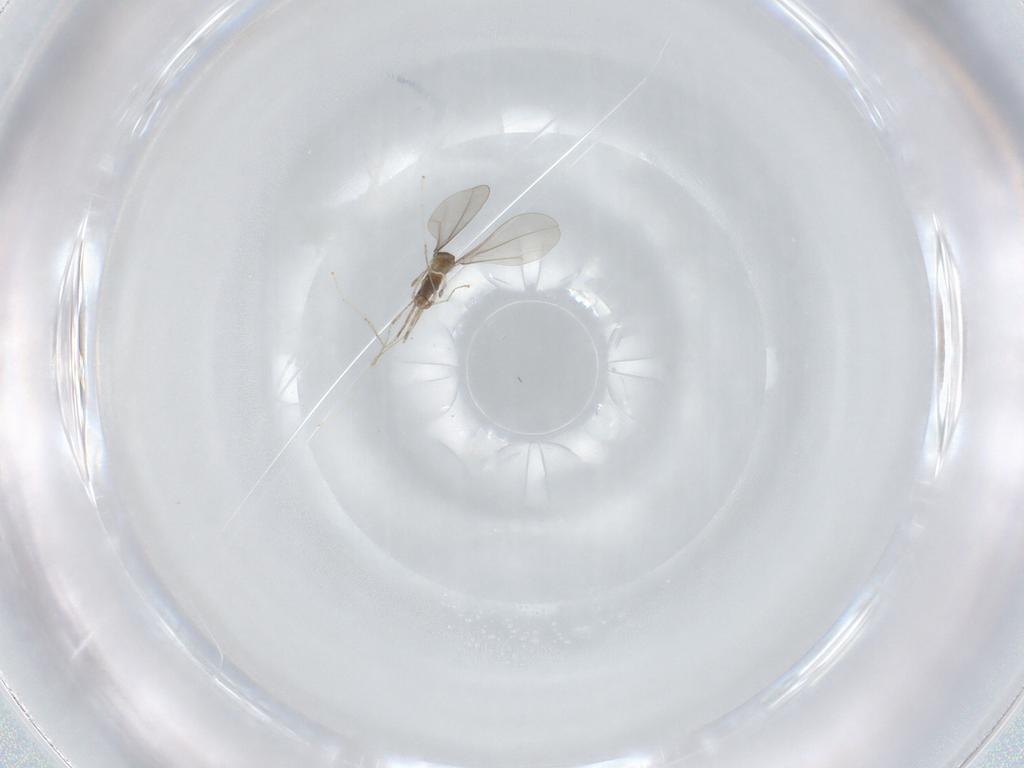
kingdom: Animalia
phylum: Arthropoda
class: Insecta
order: Diptera
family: Cecidomyiidae
